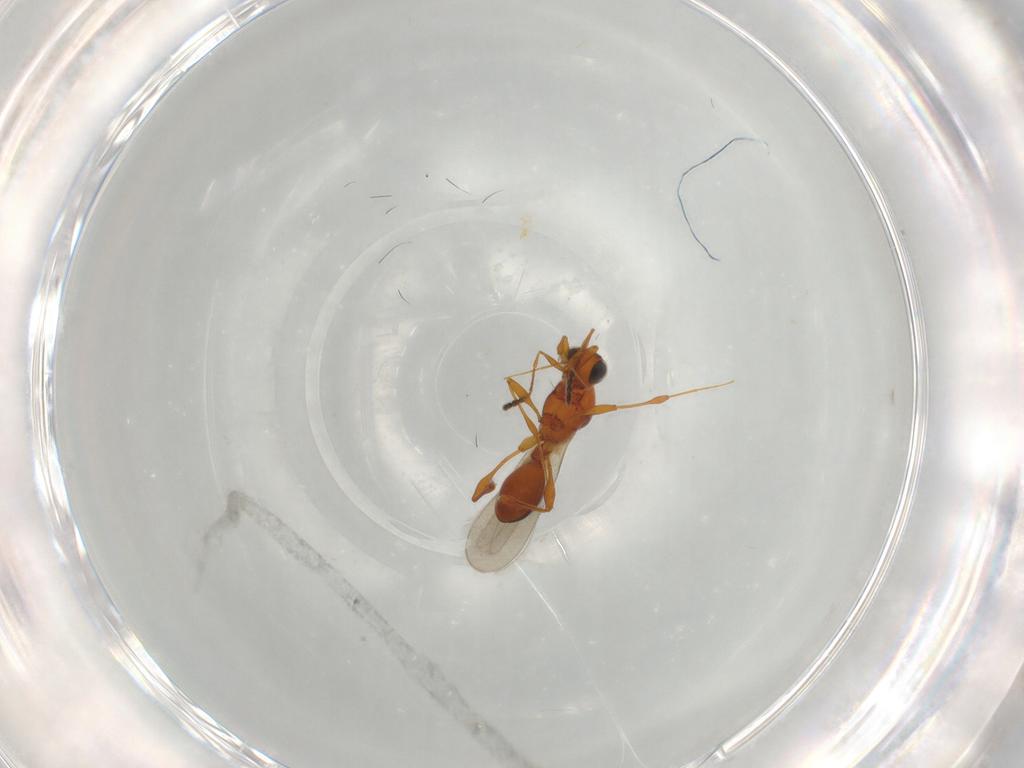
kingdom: Animalia
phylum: Arthropoda
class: Insecta
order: Hymenoptera
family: Platygastridae
